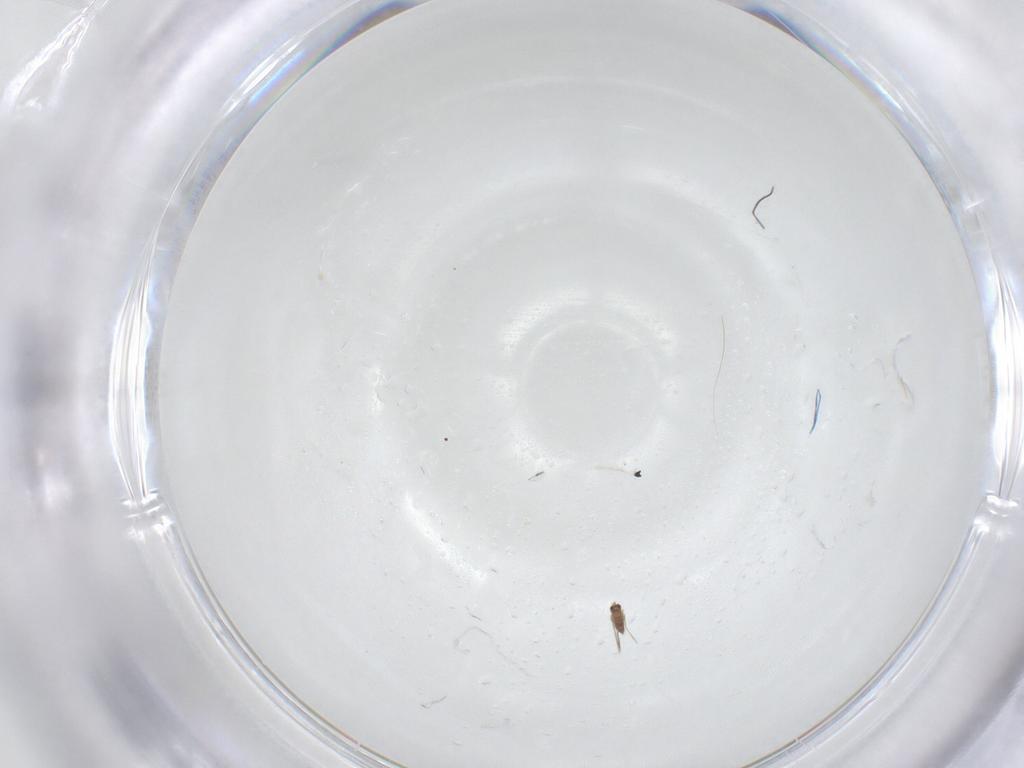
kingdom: Animalia
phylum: Arthropoda
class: Insecta
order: Hymenoptera
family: Mymaridae
